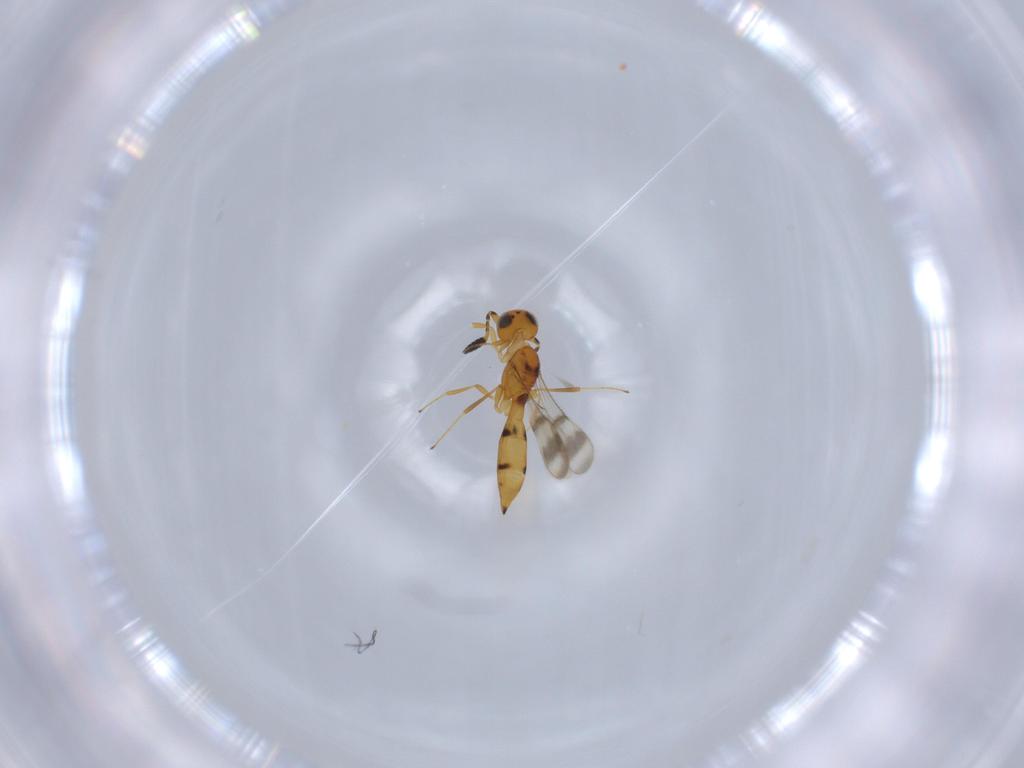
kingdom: Animalia
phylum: Arthropoda
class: Insecta
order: Hymenoptera
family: Scelionidae
